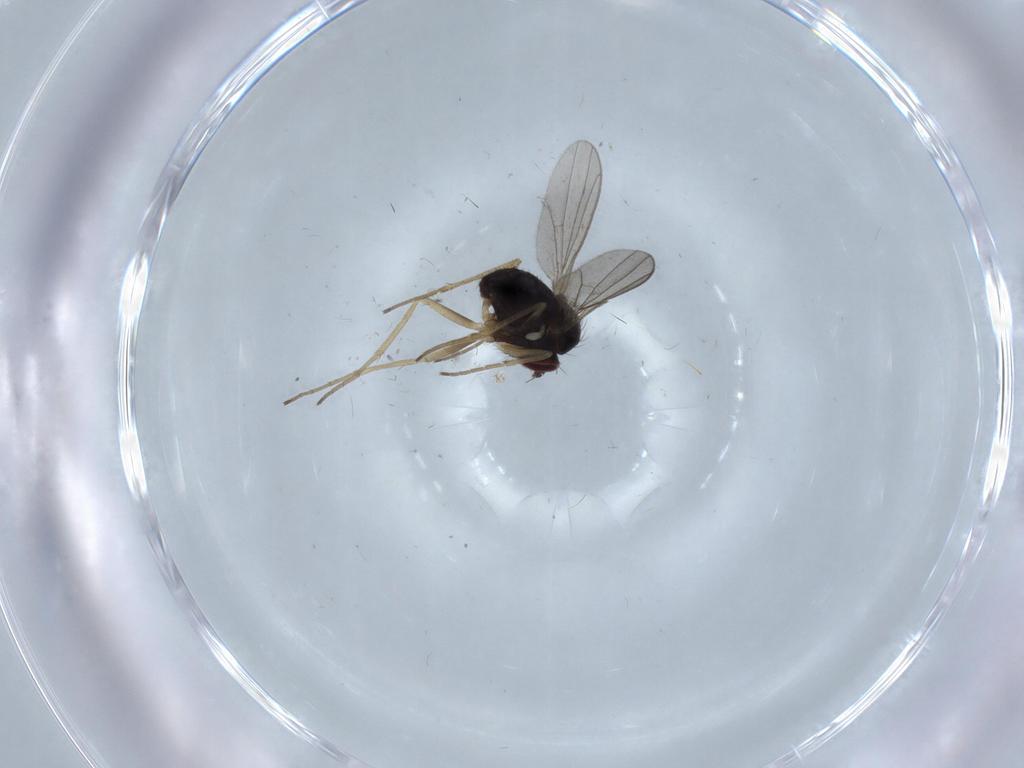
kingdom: Animalia
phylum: Arthropoda
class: Insecta
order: Diptera
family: Dolichopodidae
